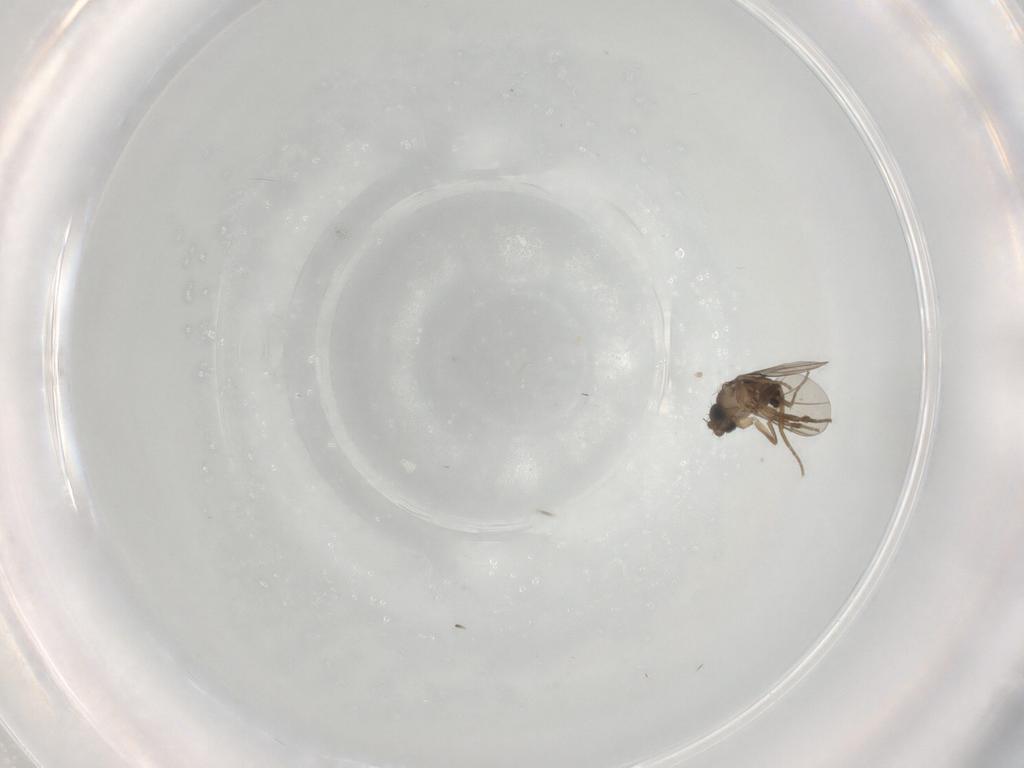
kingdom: Animalia
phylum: Arthropoda
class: Insecta
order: Diptera
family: Phoridae
